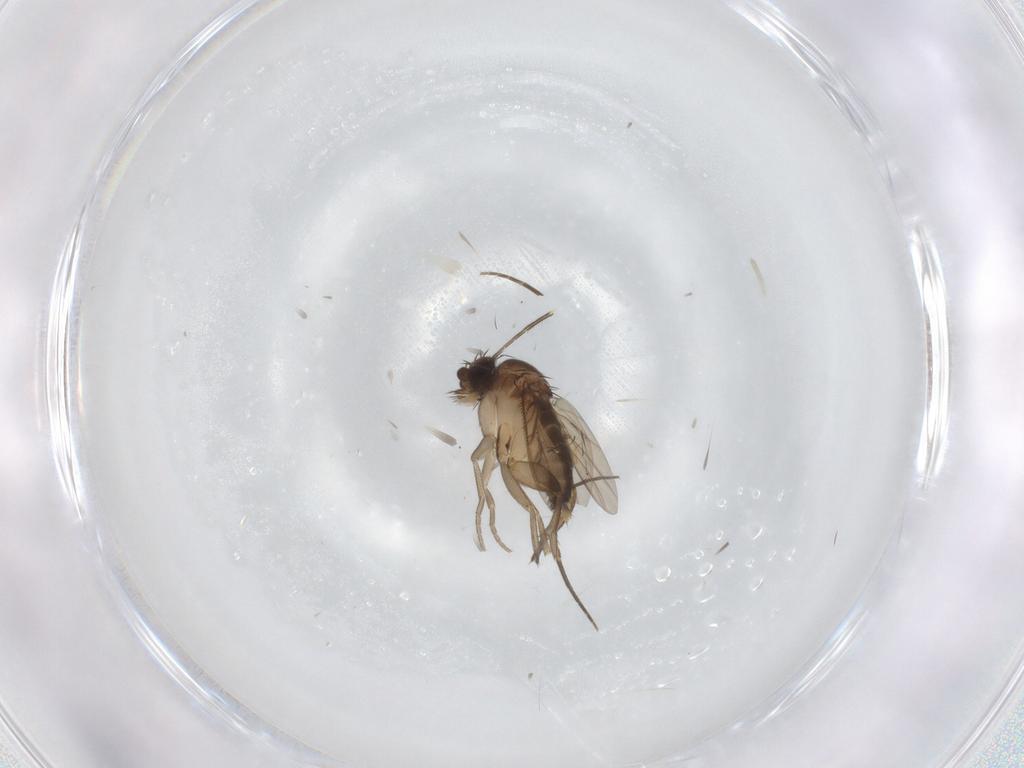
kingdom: Animalia
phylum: Arthropoda
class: Insecta
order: Diptera
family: Phoridae
